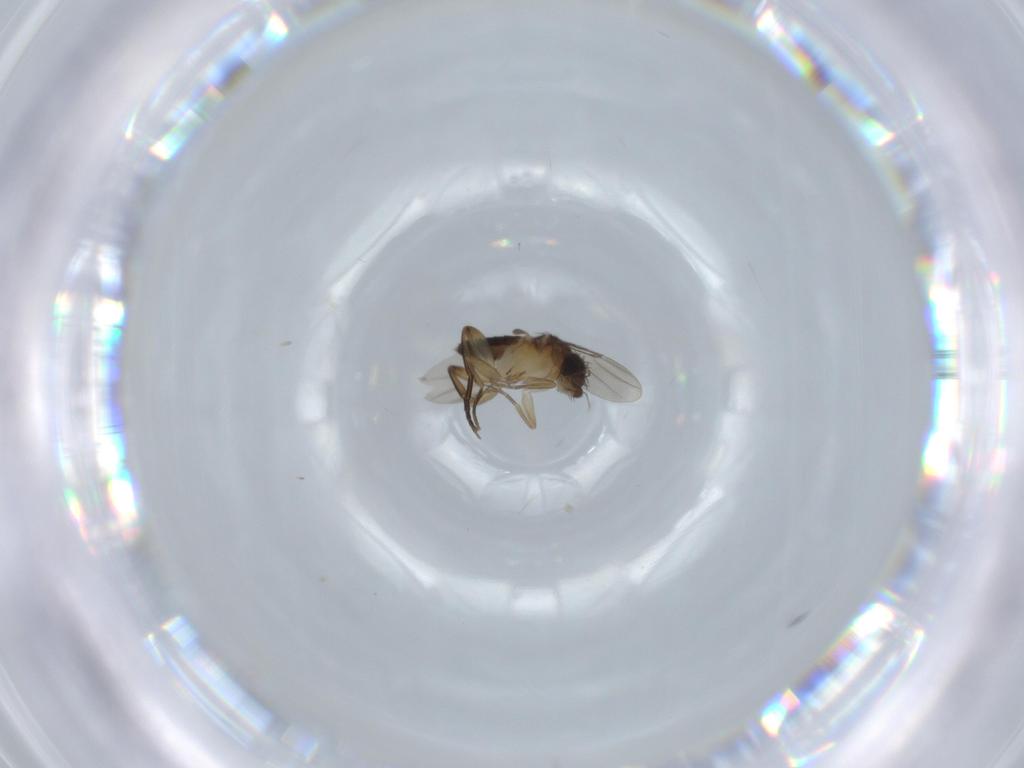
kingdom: Animalia
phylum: Arthropoda
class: Insecta
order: Diptera
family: Phoridae
